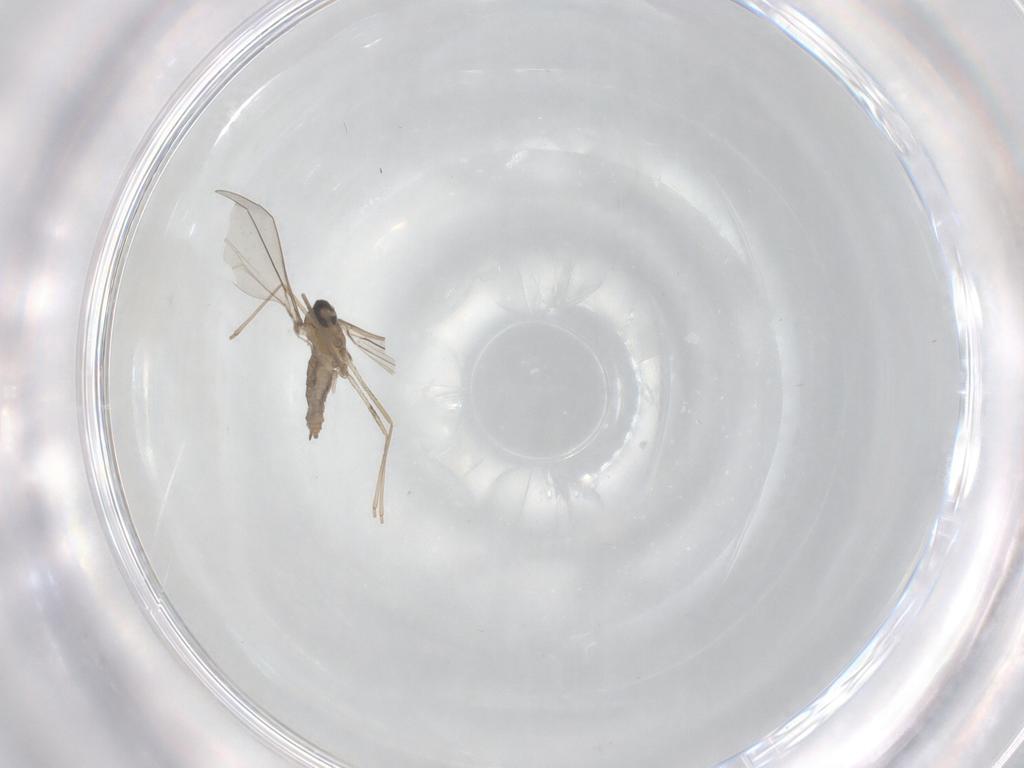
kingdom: Animalia
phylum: Arthropoda
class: Insecta
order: Diptera
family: Cecidomyiidae
